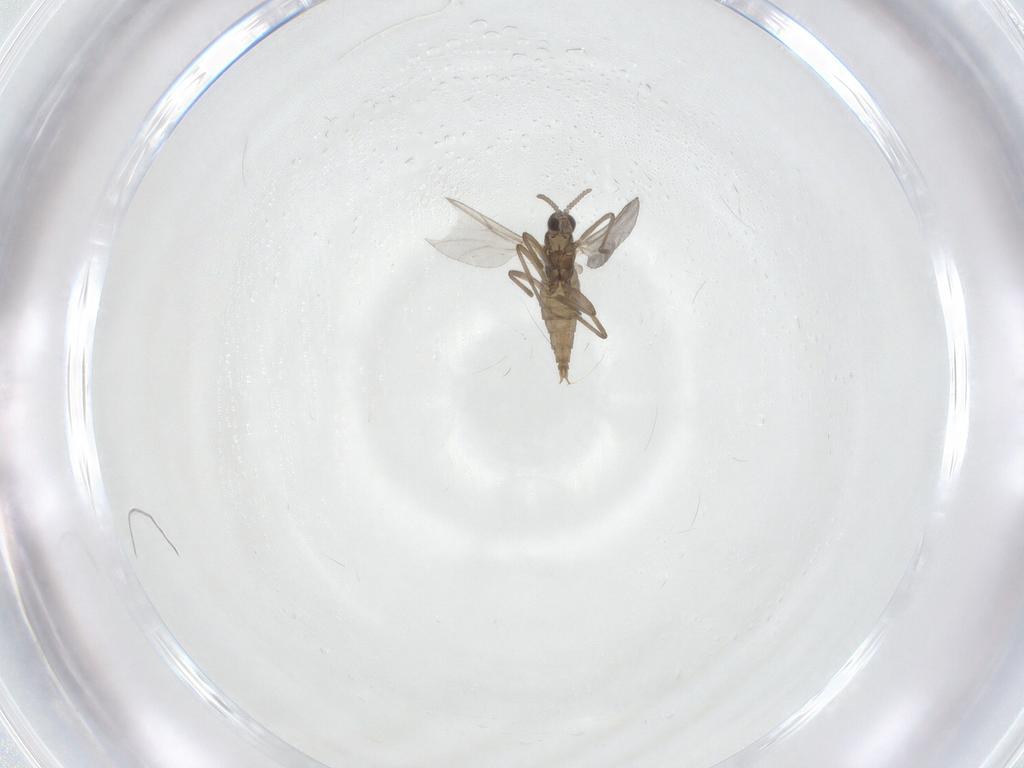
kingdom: Animalia
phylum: Arthropoda
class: Insecta
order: Diptera
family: Cecidomyiidae
